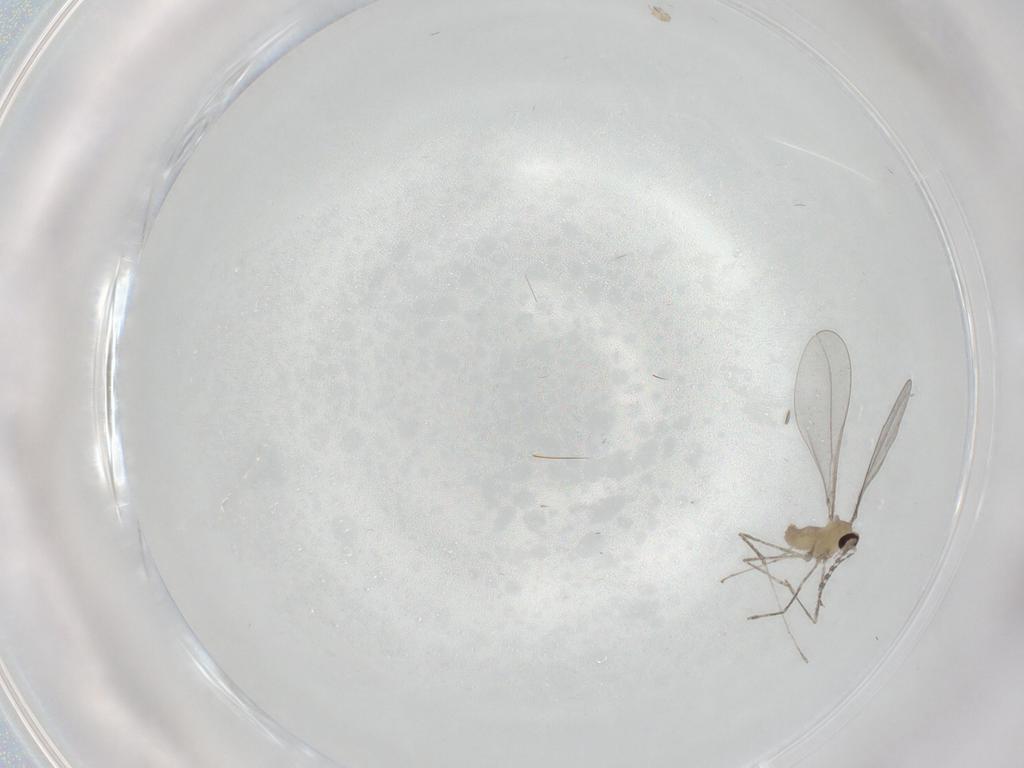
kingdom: Animalia
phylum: Arthropoda
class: Insecta
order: Diptera
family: Cecidomyiidae
